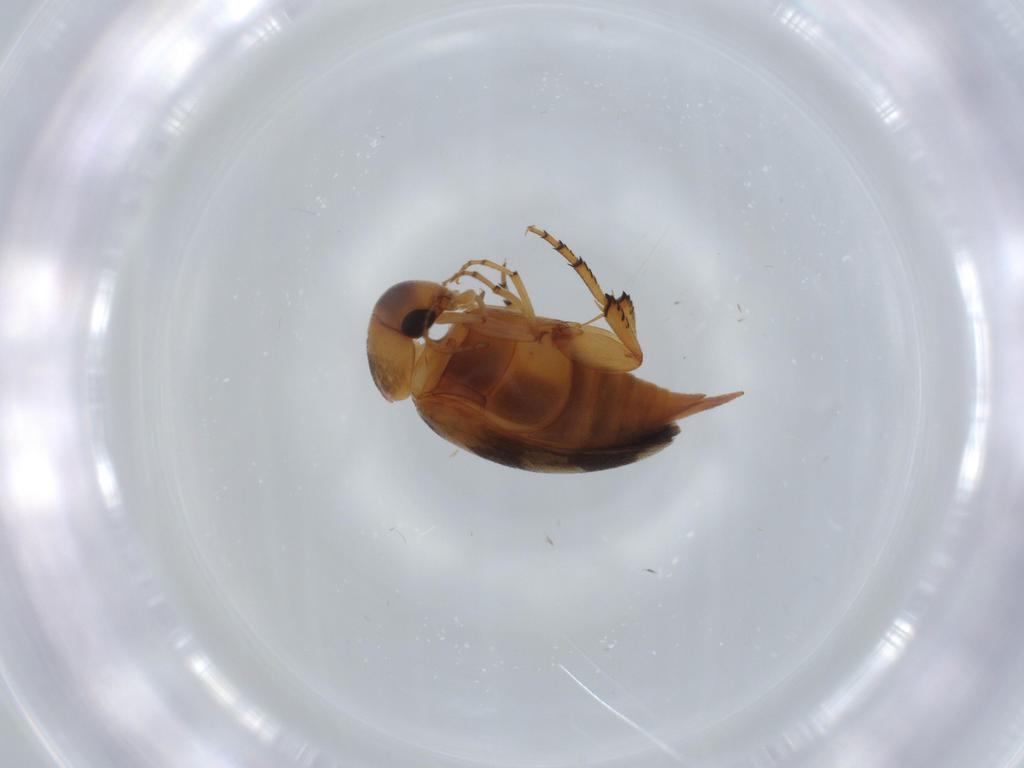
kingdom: Animalia
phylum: Arthropoda
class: Insecta
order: Coleoptera
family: Mordellidae
